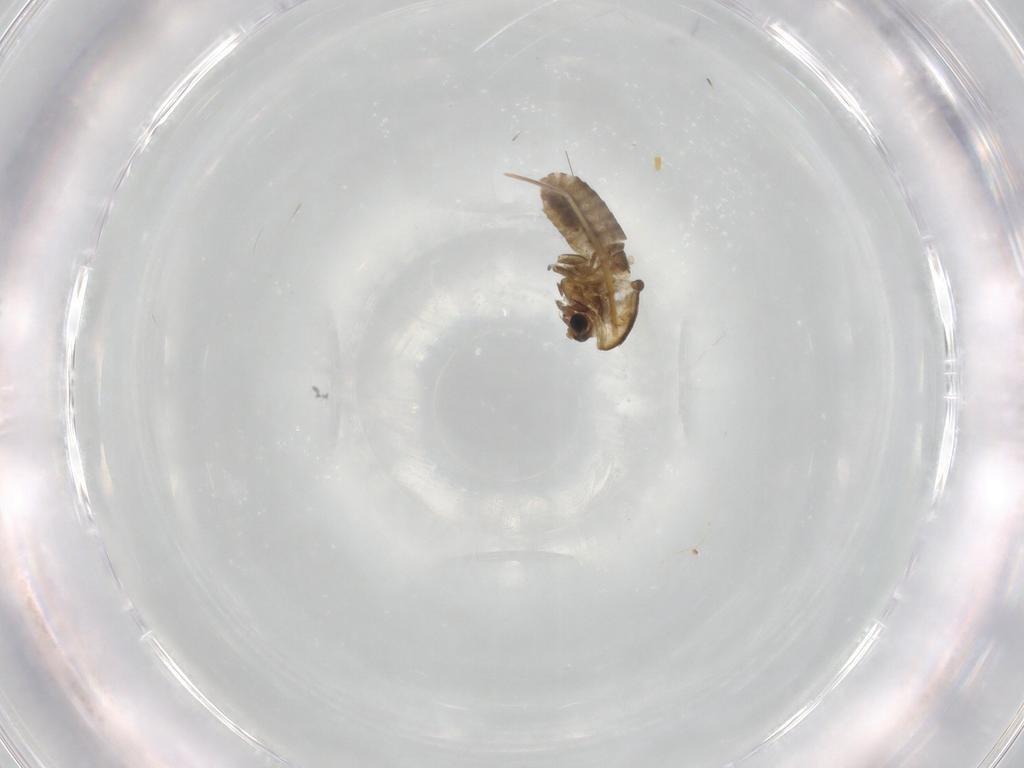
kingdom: Animalia
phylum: Arthropoda
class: Insecta
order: Diptera
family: Chironomidae
